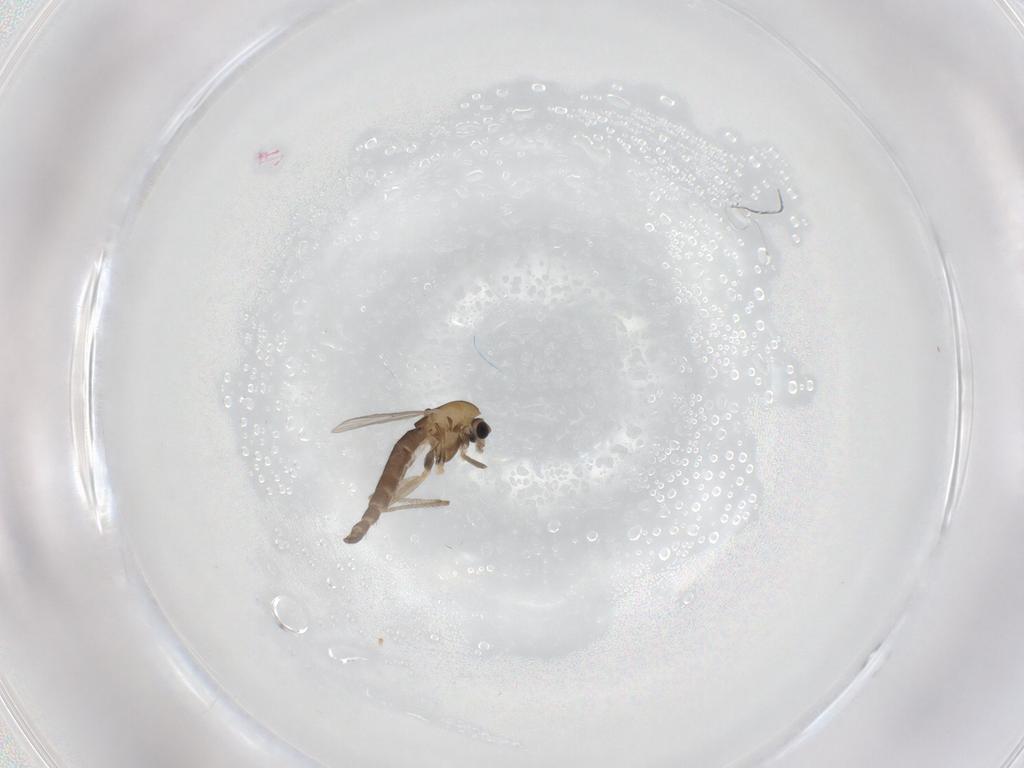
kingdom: Animalia
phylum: Arthropoda
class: Insecta
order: Diptera
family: Chironomidae
